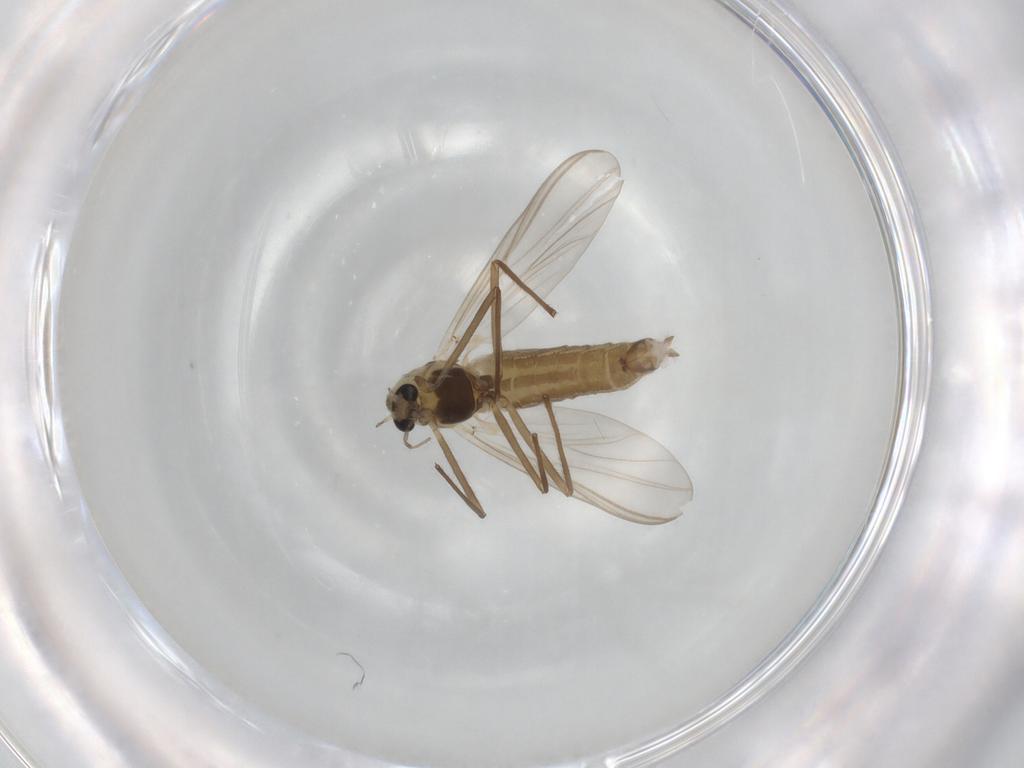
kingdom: Animalia
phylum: Arthropoda
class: Insecta
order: Diptera
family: Chironomidae
